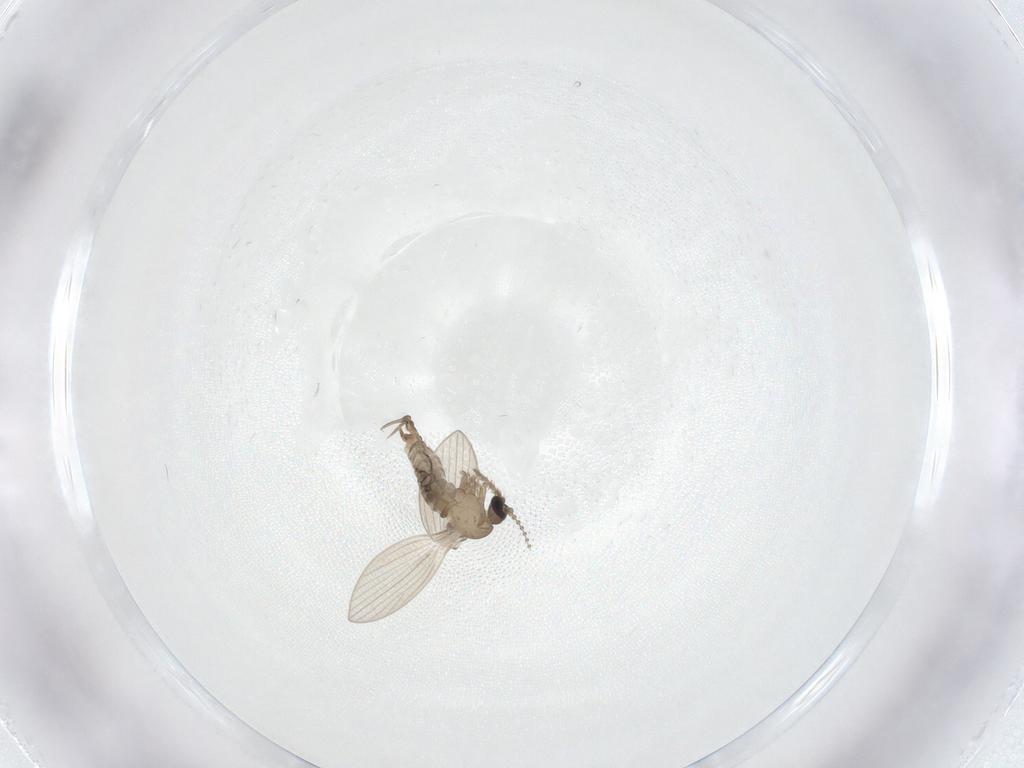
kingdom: Animalia
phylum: Arthropoda
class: Insecta
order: Diptera
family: Psychodidae
